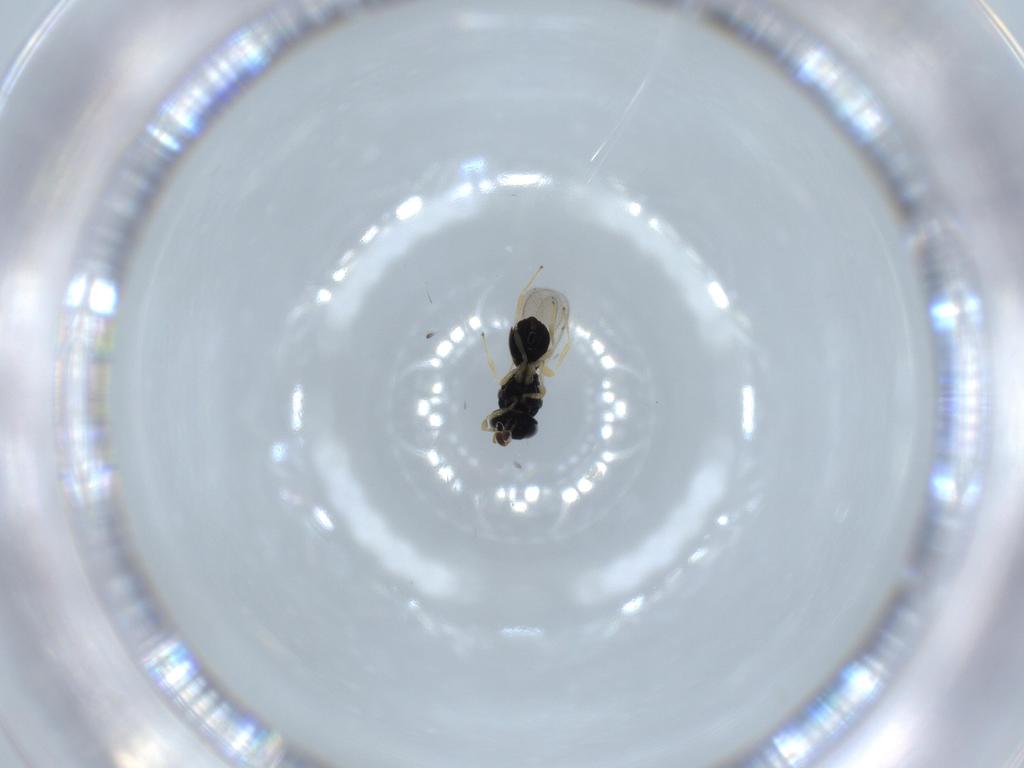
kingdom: Animalia
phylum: Arthropoda
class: Insecta
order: Hymenoptera
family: Scelionidae
